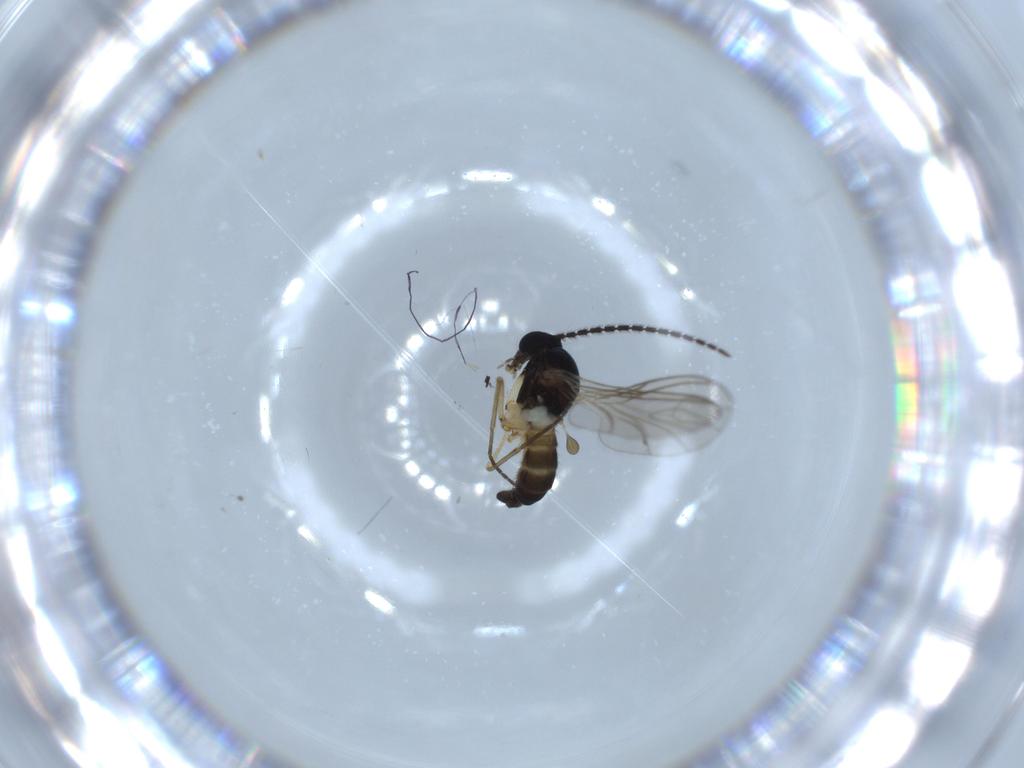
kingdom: Animalia
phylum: Arthropoda
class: Insecta
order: Diptera
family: Sciaridae
